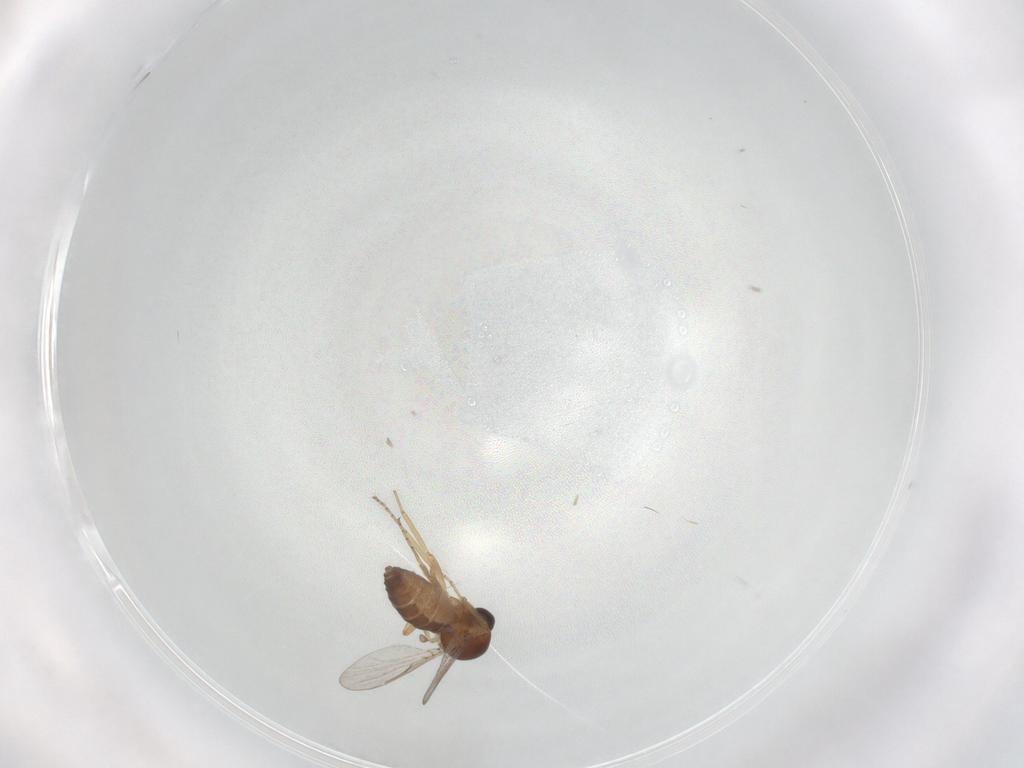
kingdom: Animalia
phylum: Arthropoda
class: Insecta
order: Diptera
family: Ceratopogonidae
